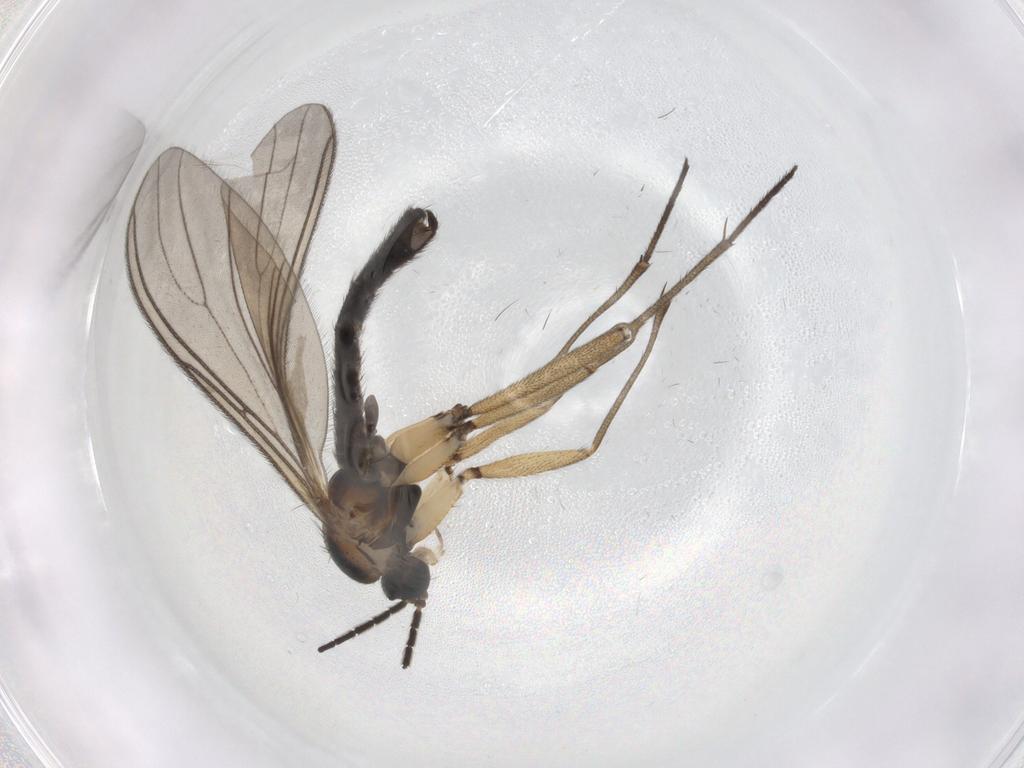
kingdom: Animalia
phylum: Arthropoda
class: Insecta
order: Diptera
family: Sciaridae
